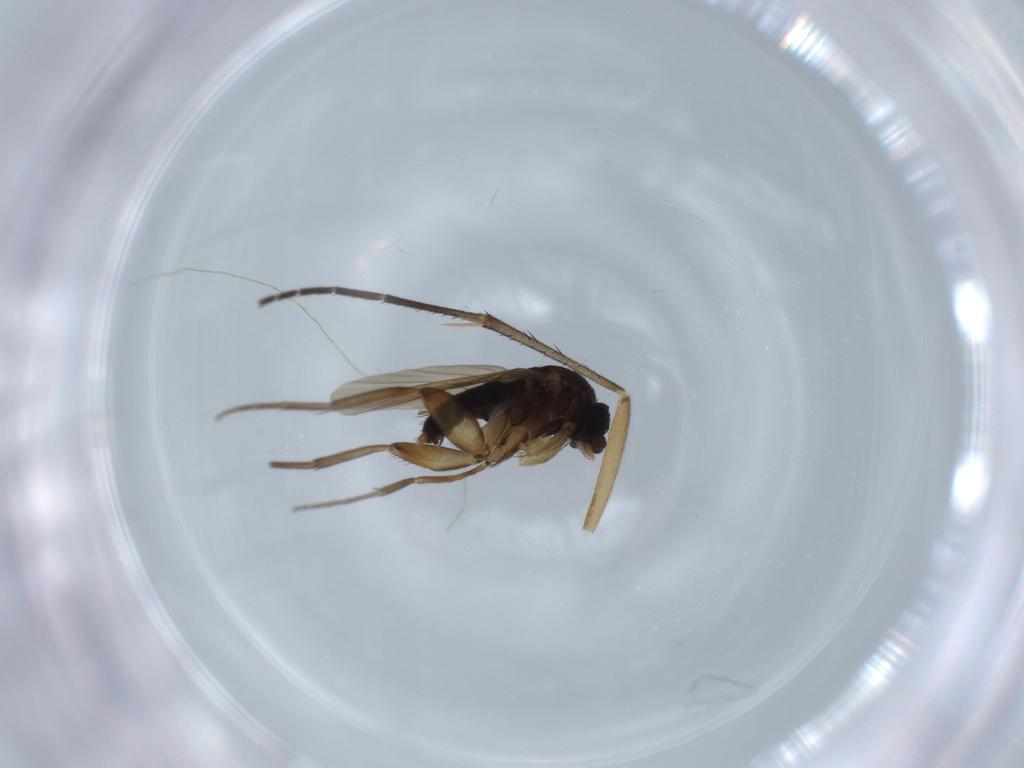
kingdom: Animalia
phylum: Arthropoda
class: Insecta
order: Diptera
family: Phoridae
